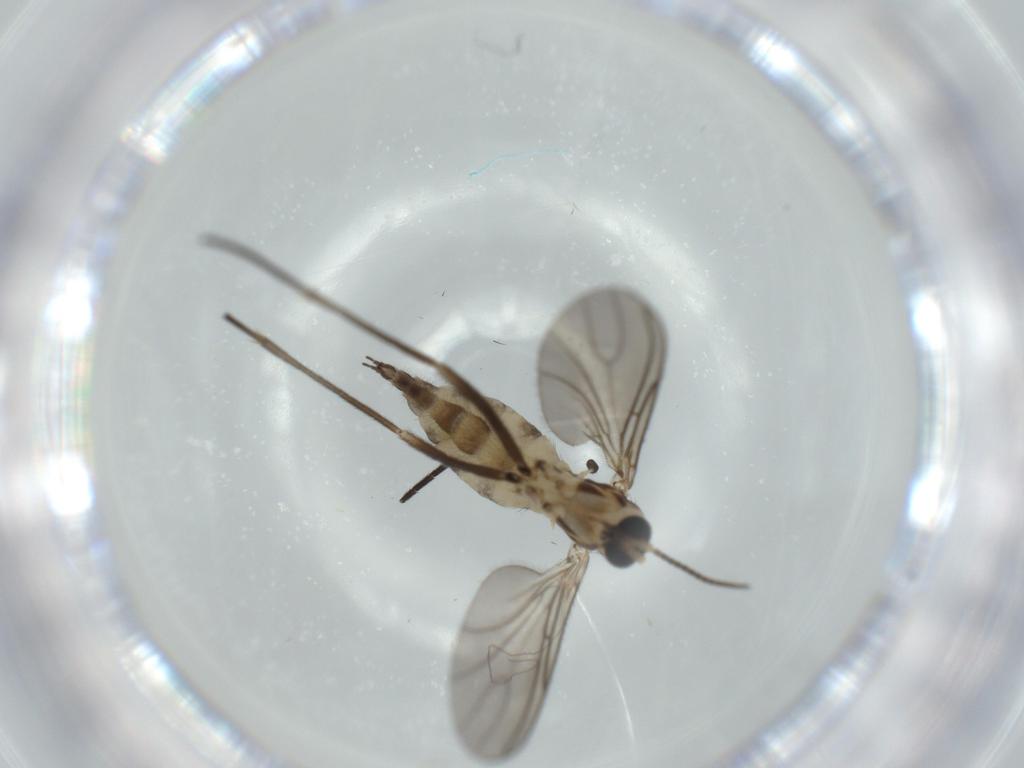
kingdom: Animalia
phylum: Arthropoda
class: Insecta
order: Diptera
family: Sciaridae
